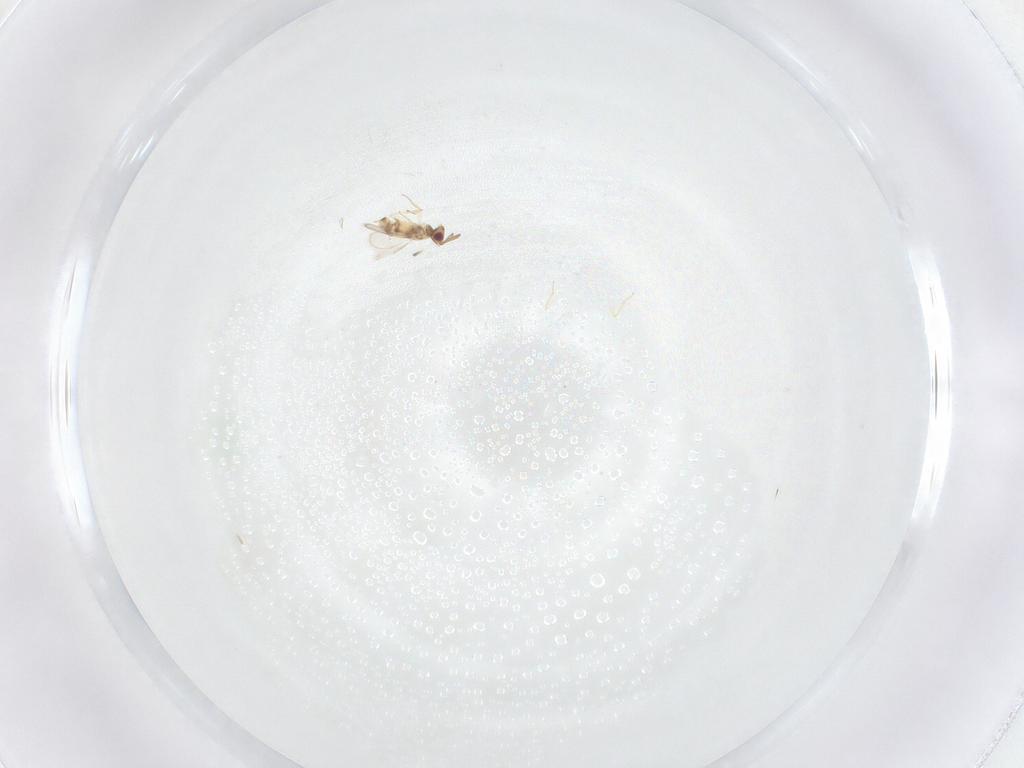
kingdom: Animalia
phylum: Arthropoda
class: Insecta
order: Hymenoptera
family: Aphelinidae
